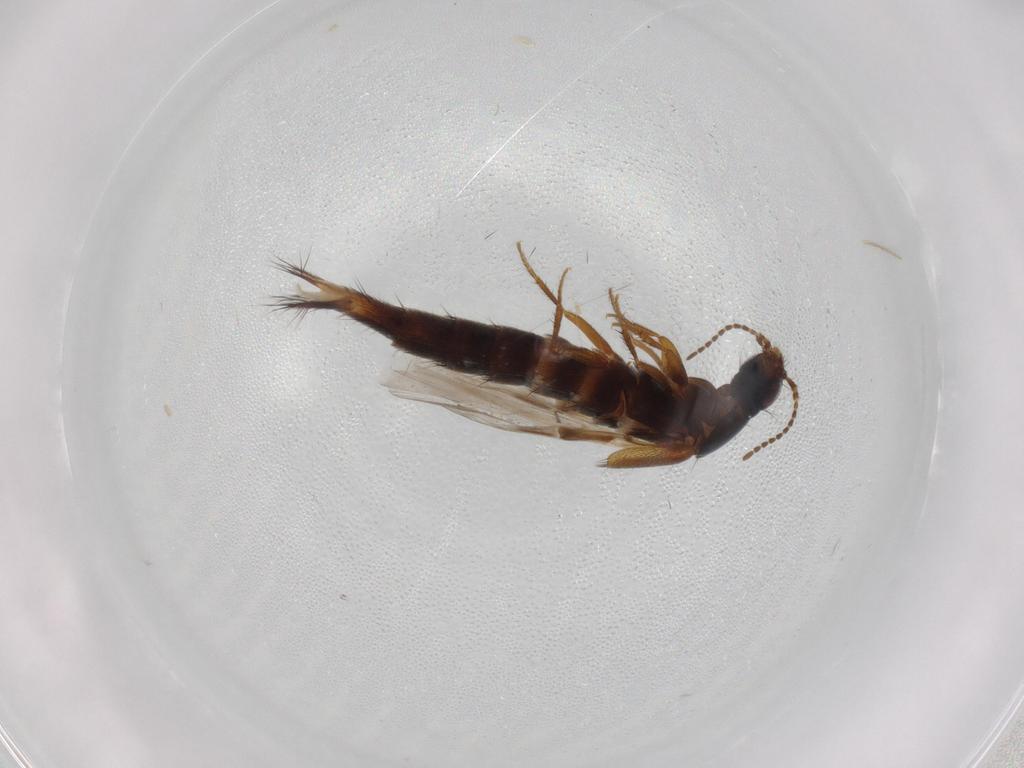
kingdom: Animalia
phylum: Arthropoda
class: Insecta
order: Coleoptera
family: Staphylinidae
